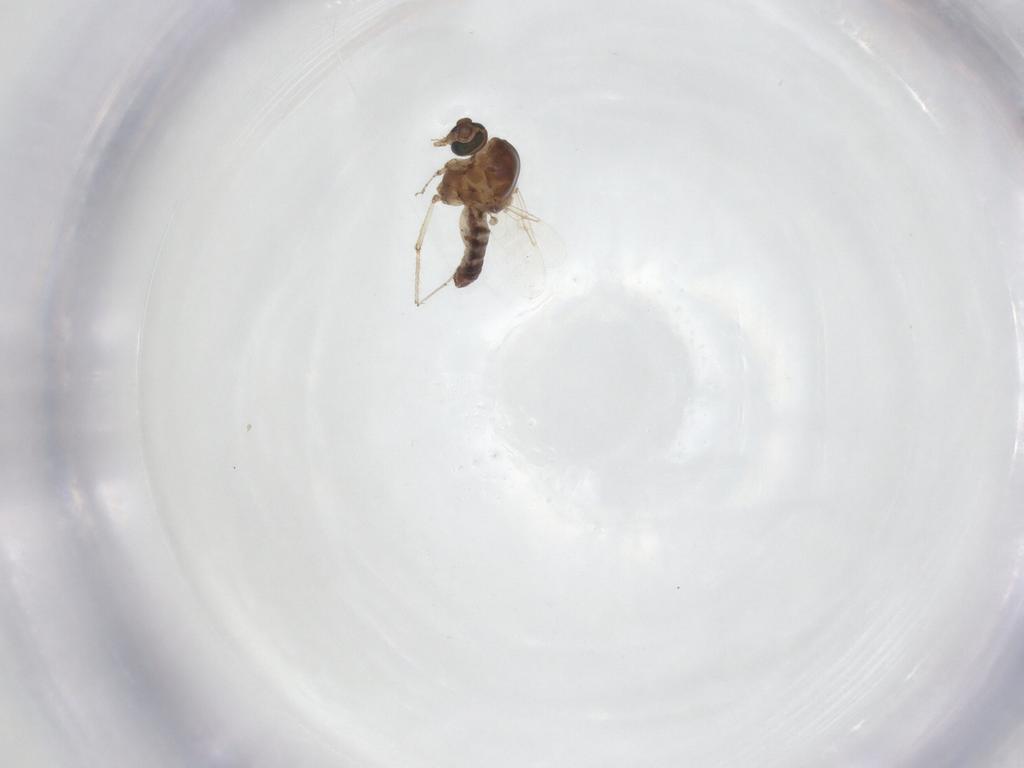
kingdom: Animalia
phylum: Arthropoda
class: Insecta
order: Diptera
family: Ceratopogonidae
